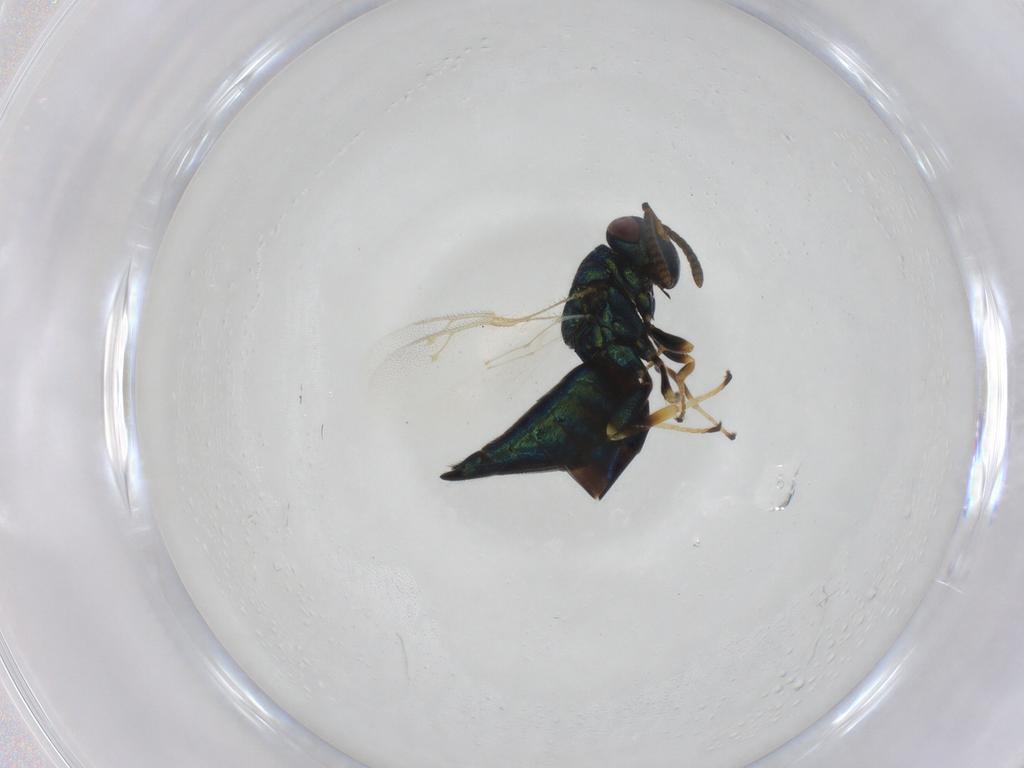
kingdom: Animalia
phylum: Arthropoda
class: Insecta
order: Hymenoptera
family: Pteromalidae
